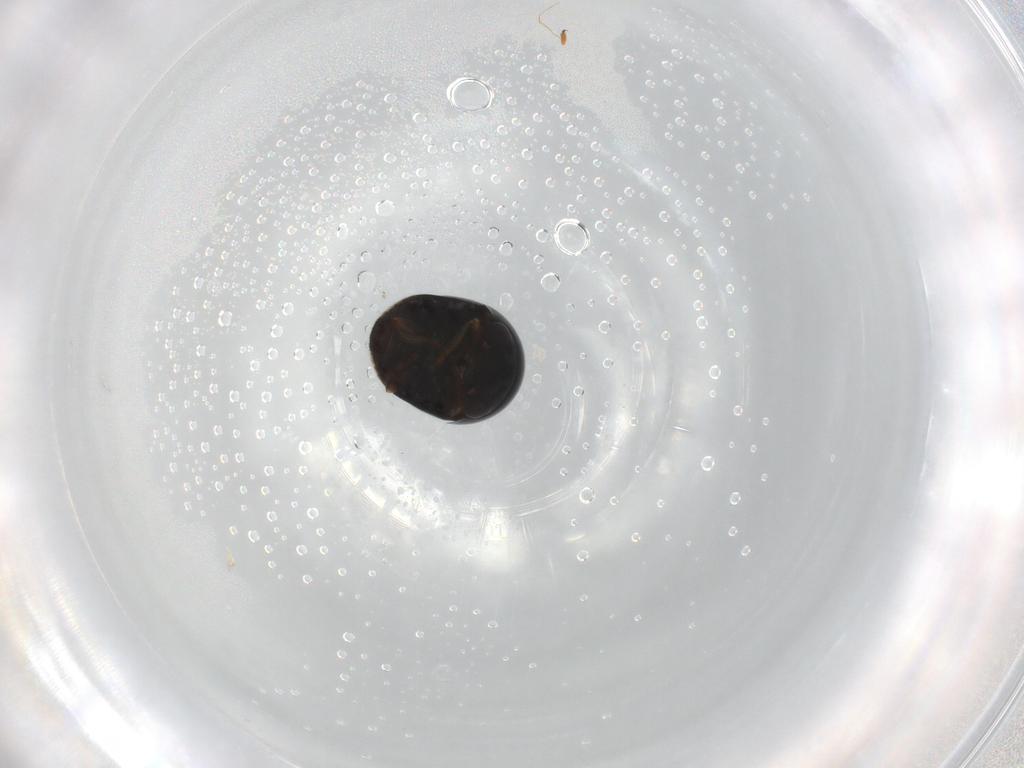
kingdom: Animalia
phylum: Arthropoda
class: Insecta
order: Coleoptera
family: Cybocephalidae
